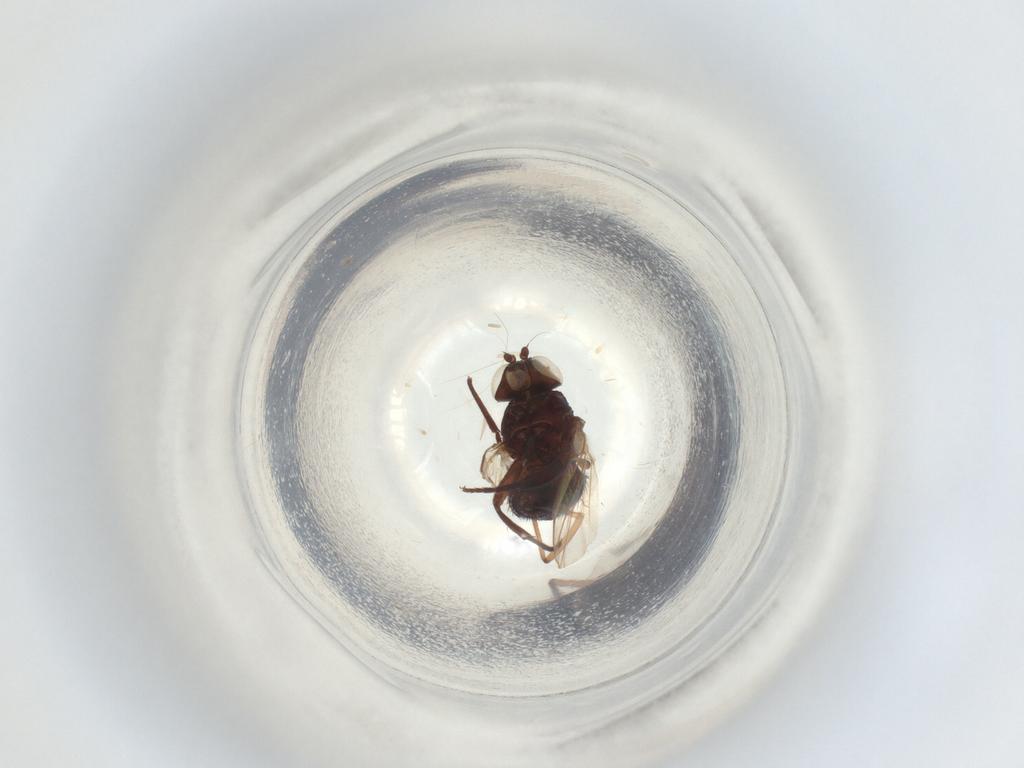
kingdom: Animalia
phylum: Arthropoda
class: Insecta
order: Diptera
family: Agromyzidae
